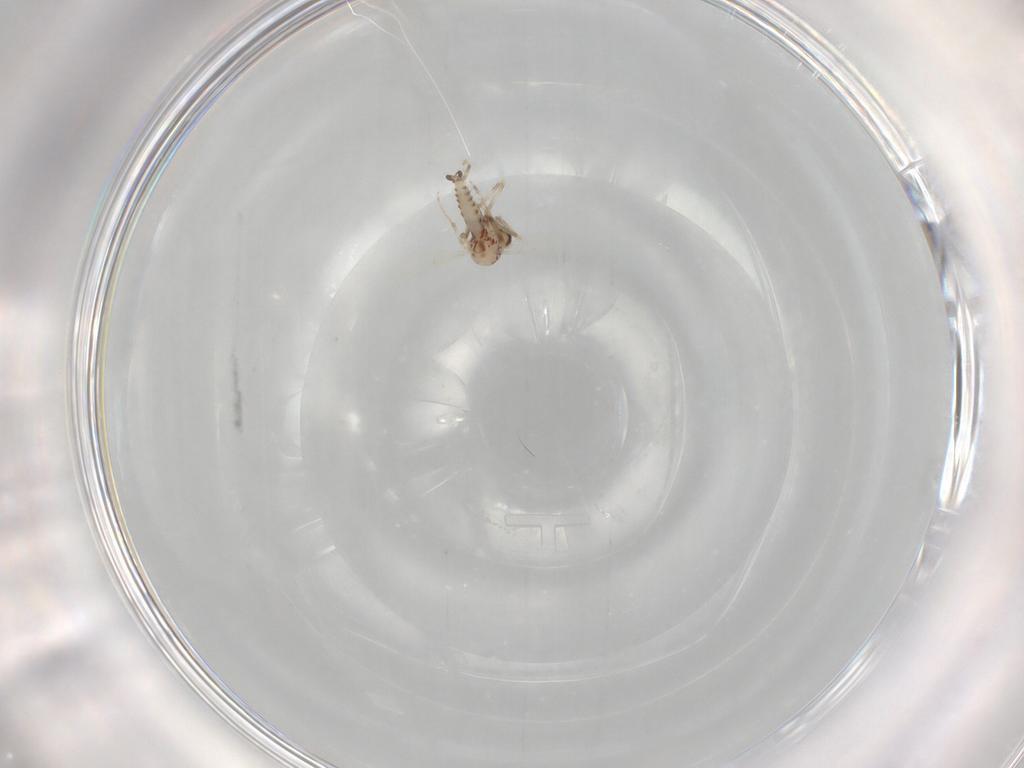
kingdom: Animalia
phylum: Arthropoda
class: Insecta
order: Diptera
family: Ceratopogonidae
